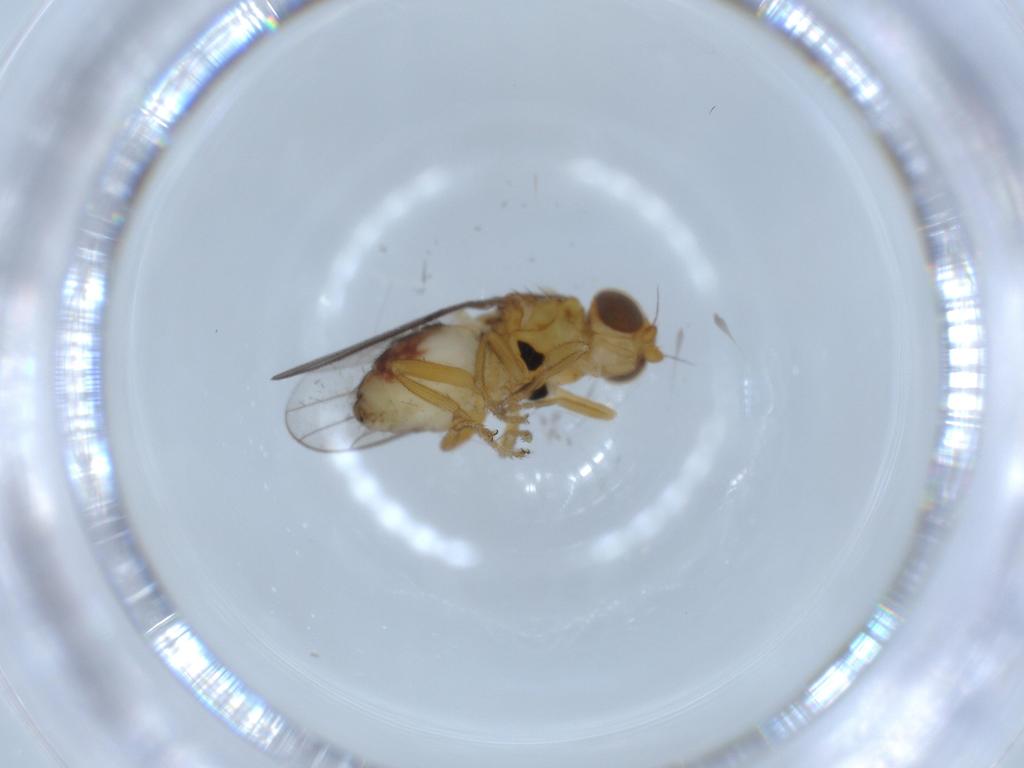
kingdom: Animalia
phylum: Arthropoda
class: Insecta
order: Diptera
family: Chloropidae
